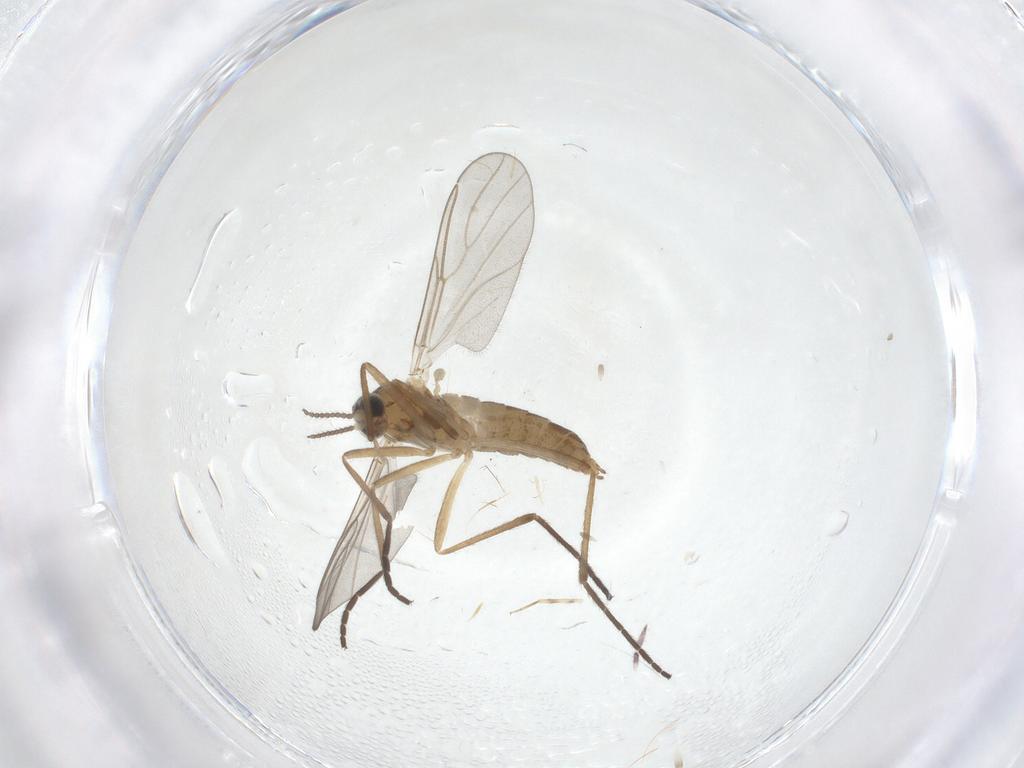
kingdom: Animalia
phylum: Arthropoda
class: Insecta
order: Diptera
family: Cecidomyiidae
